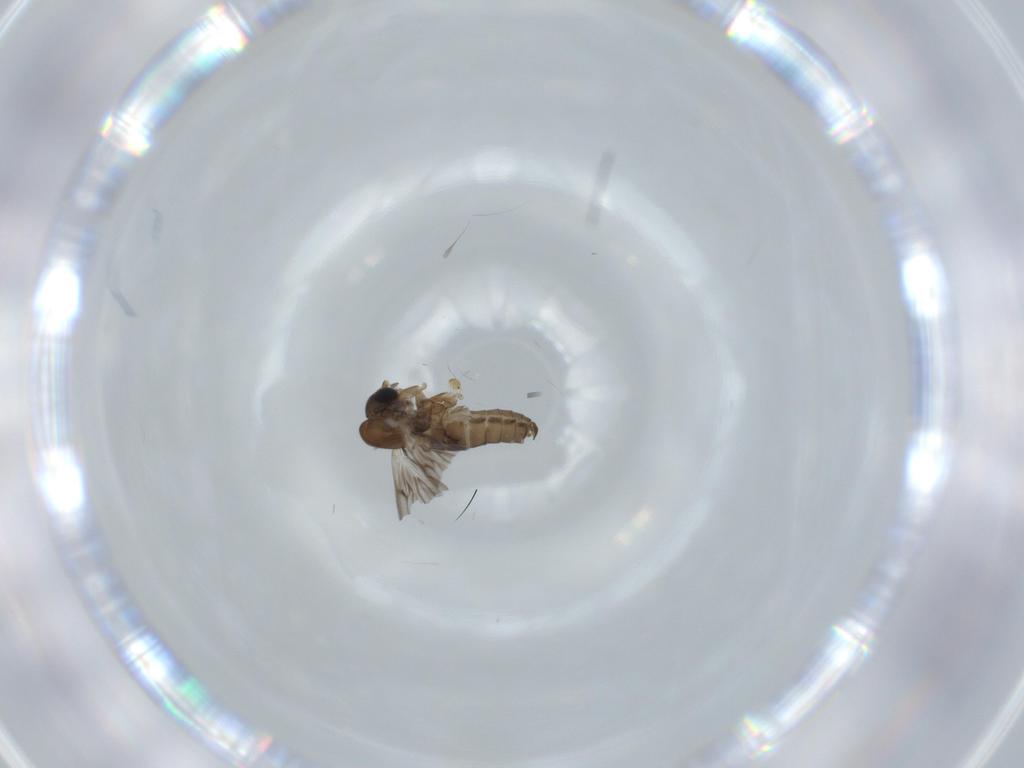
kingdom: Animalia
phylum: Arthropoda
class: Insecta
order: Diptera
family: Psychodidae
